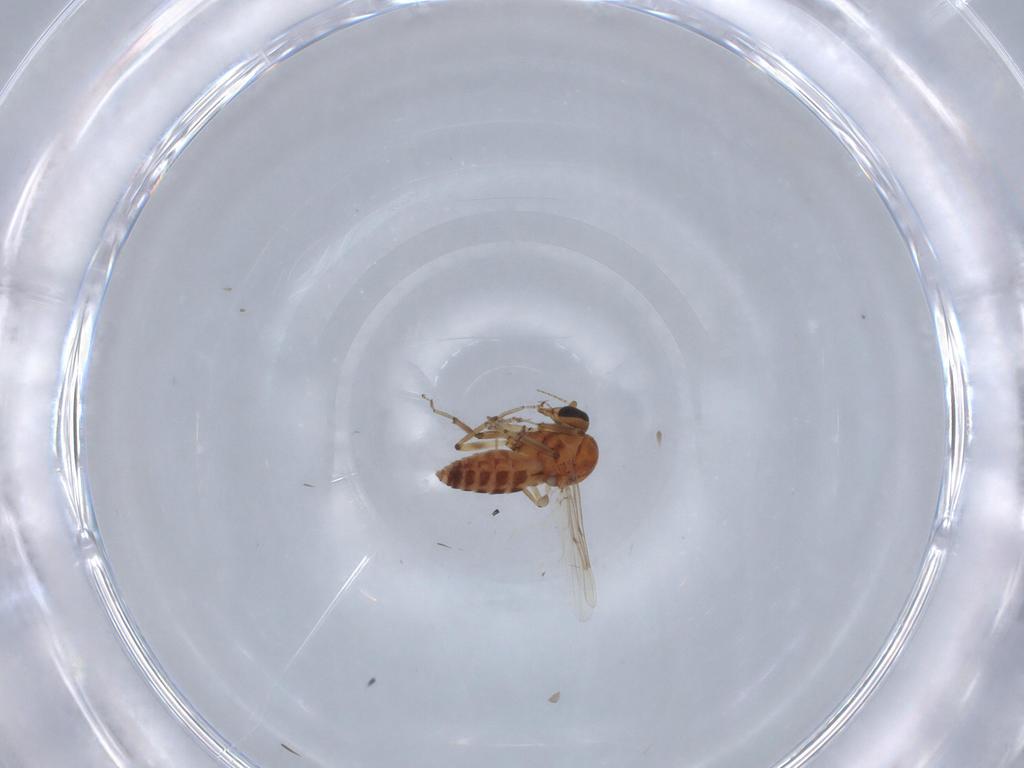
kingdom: Animalia
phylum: Arthropoda
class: Insecta
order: Diptera
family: Ceratopogonidae
